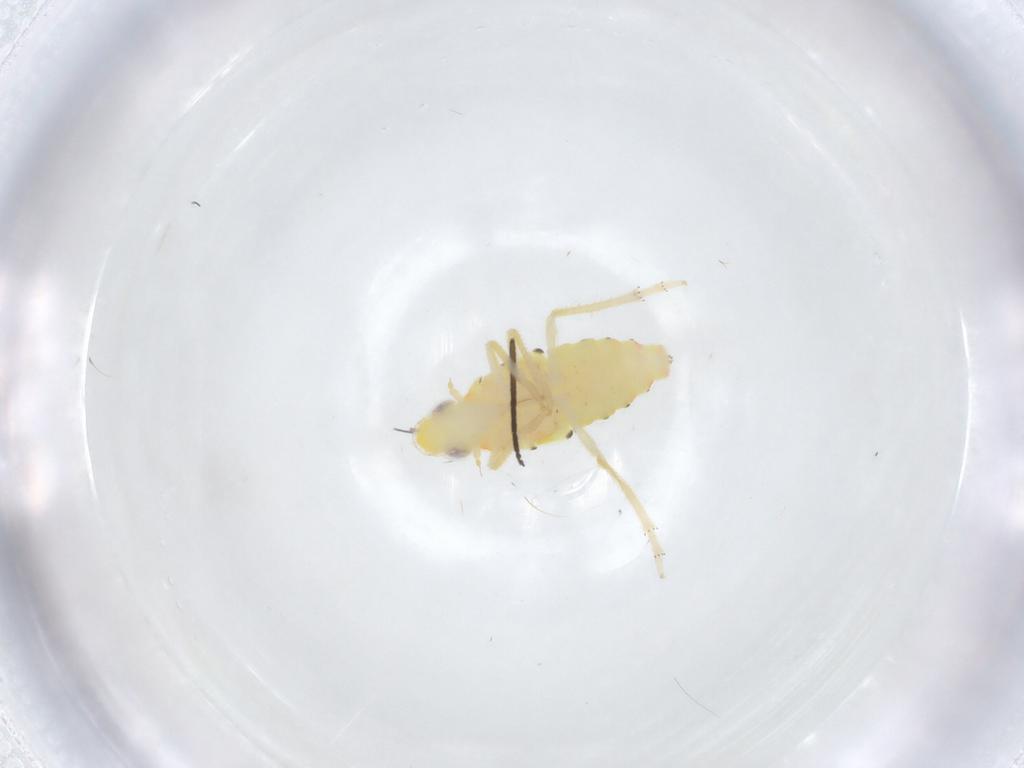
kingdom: Animalia
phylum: Arthropoda
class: Insecta
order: Hemiptera
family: Tropiduchidae
